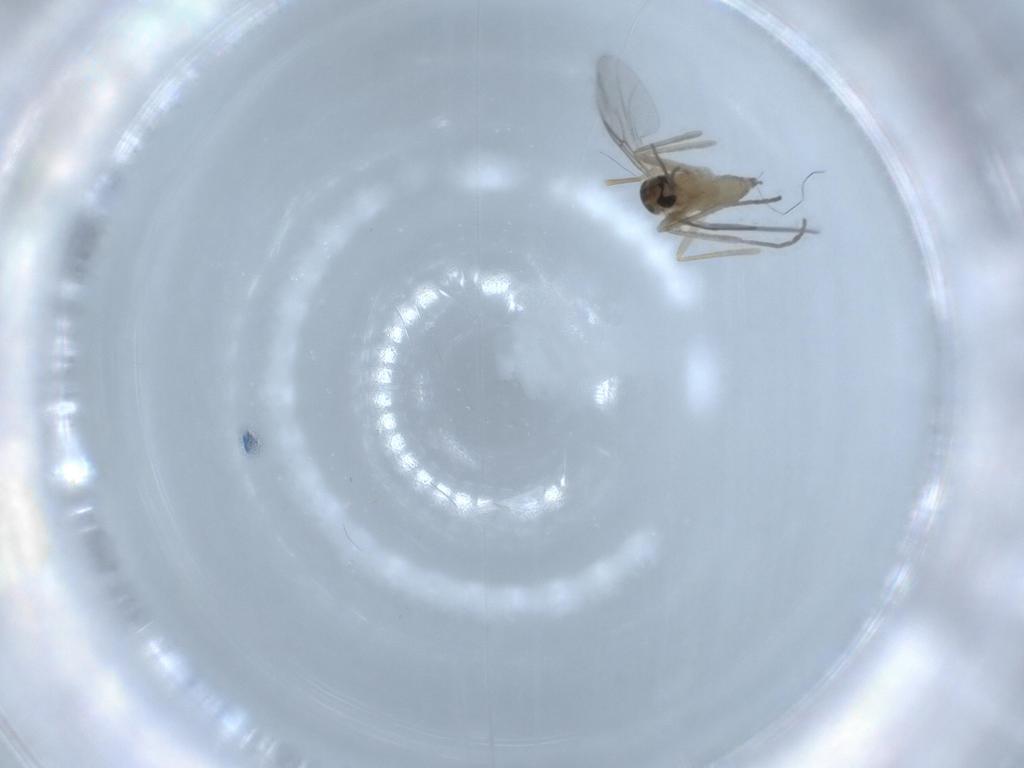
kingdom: Animalia
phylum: Arthropoda
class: Insecta
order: Diptera
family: Cecidomyiidae
